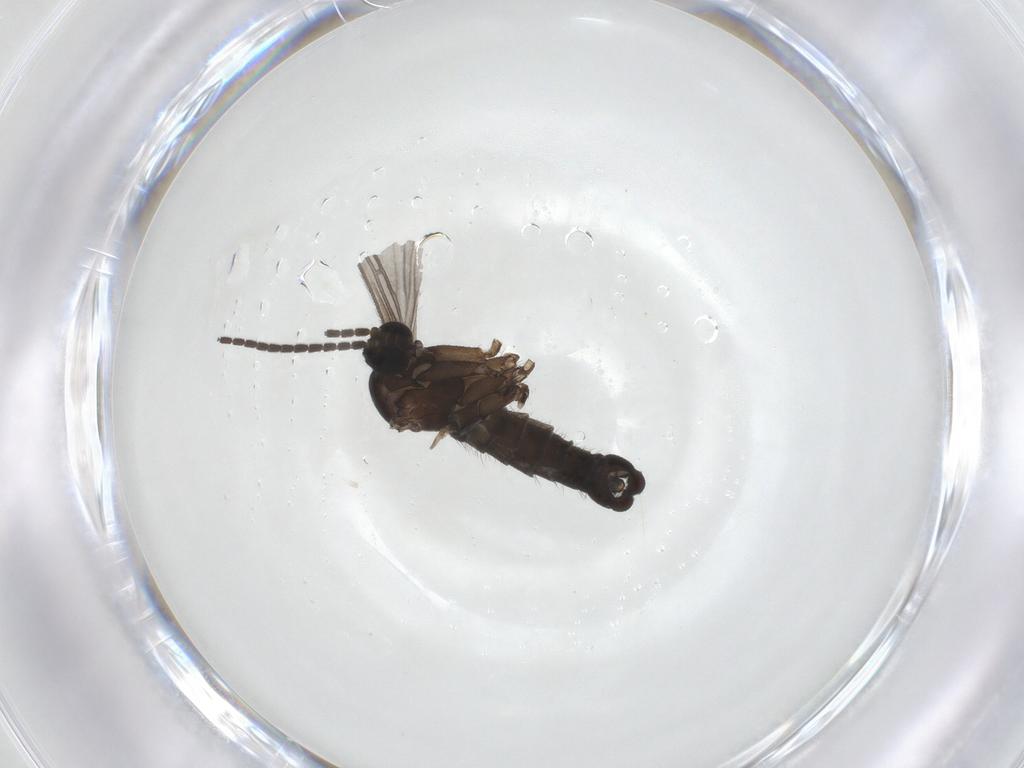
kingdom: Animalia
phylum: Arthropoda
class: Insecta
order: Diptera
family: Sciaridae
